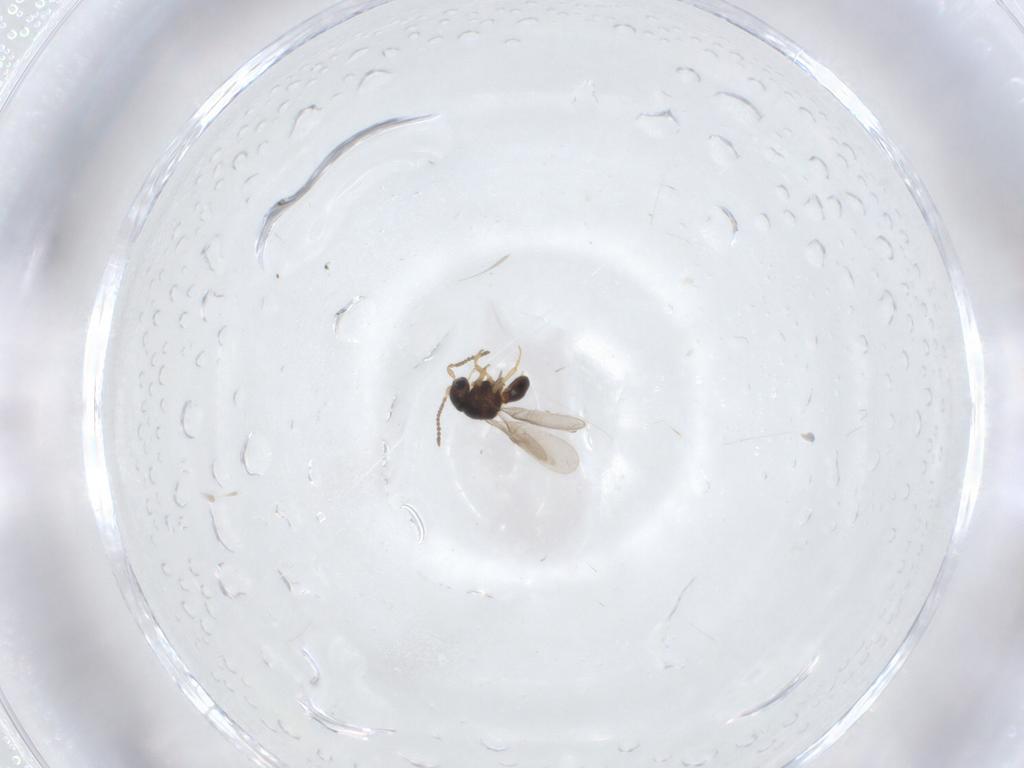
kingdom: Animalia
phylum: Arthropoda
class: Insecta
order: Hymenoptera
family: Scelionidae
